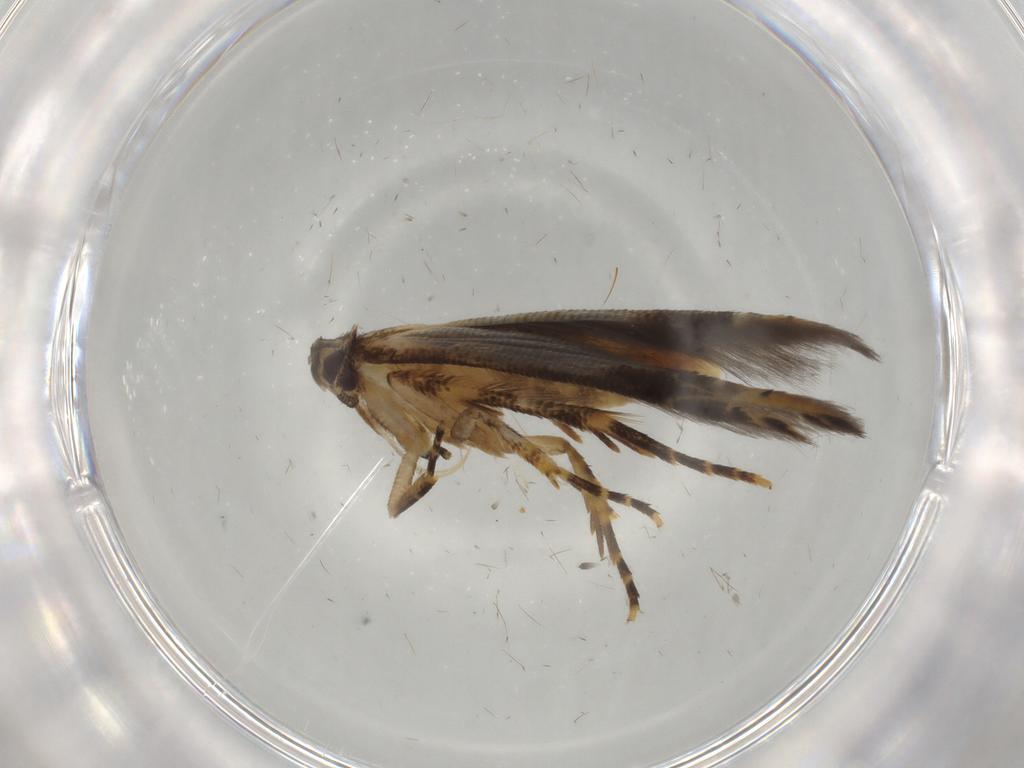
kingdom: Animalia
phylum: Arthropoda
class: Insecta
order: Lepidoptera
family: Cosmopterigidae
